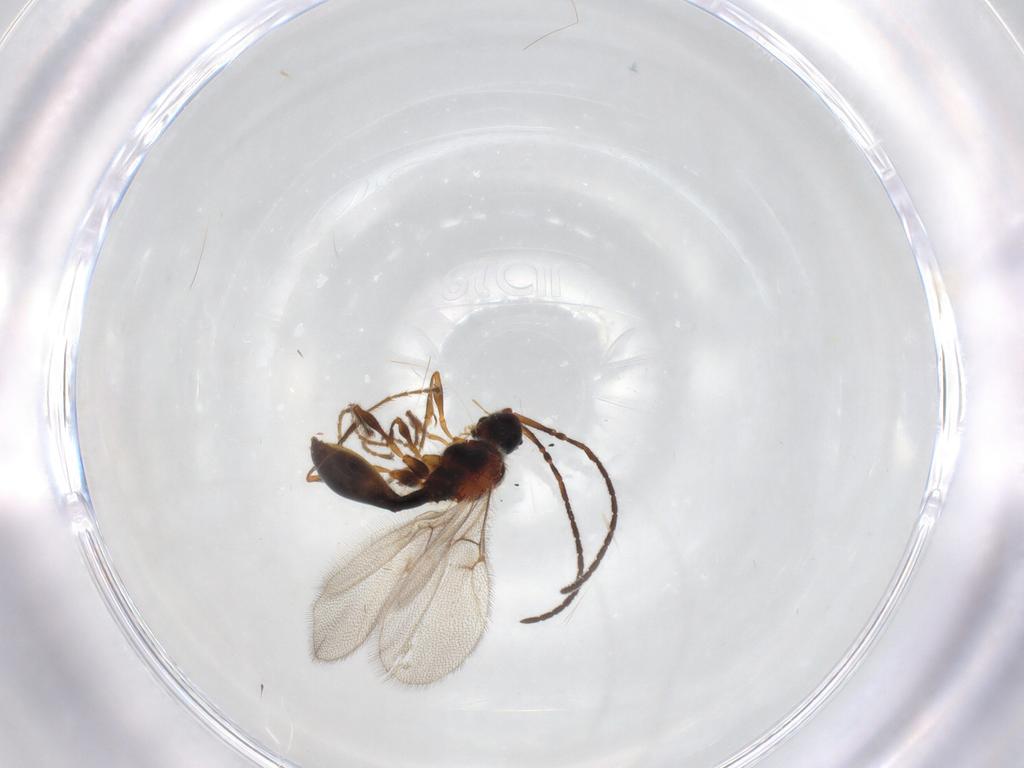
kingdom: Animalia
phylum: Arthropoda
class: Insecta
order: Hymenoptera
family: Diapriidae
